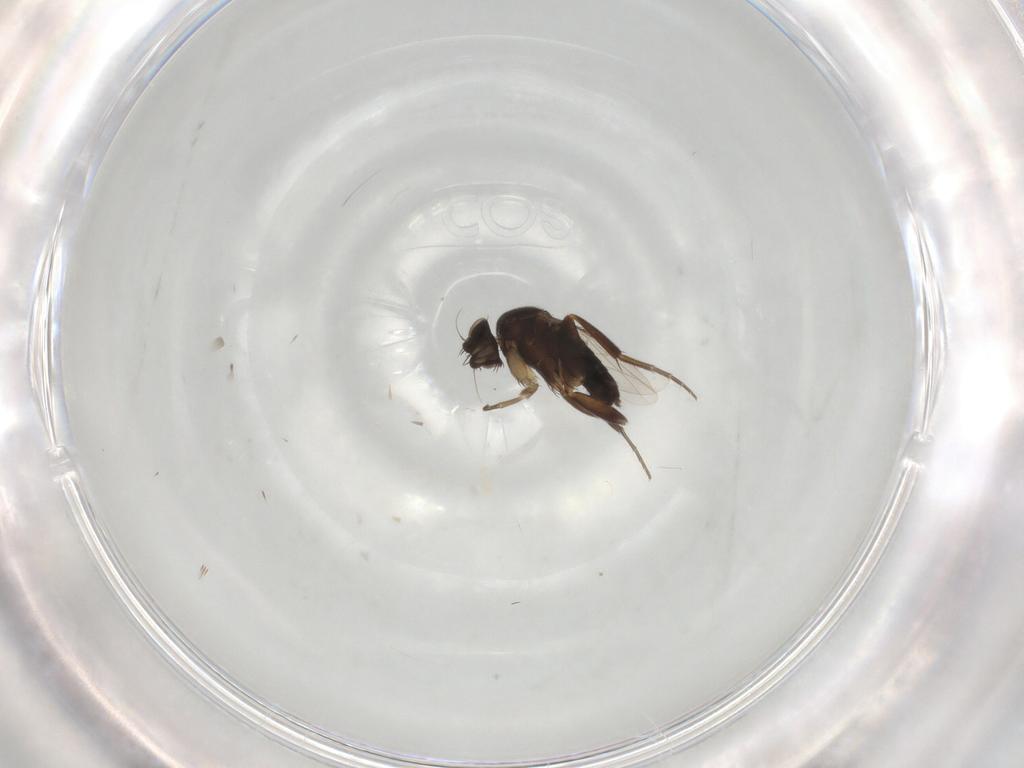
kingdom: Animalia
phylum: Arthropoda
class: Insecta
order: Diptera
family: Phoridae
